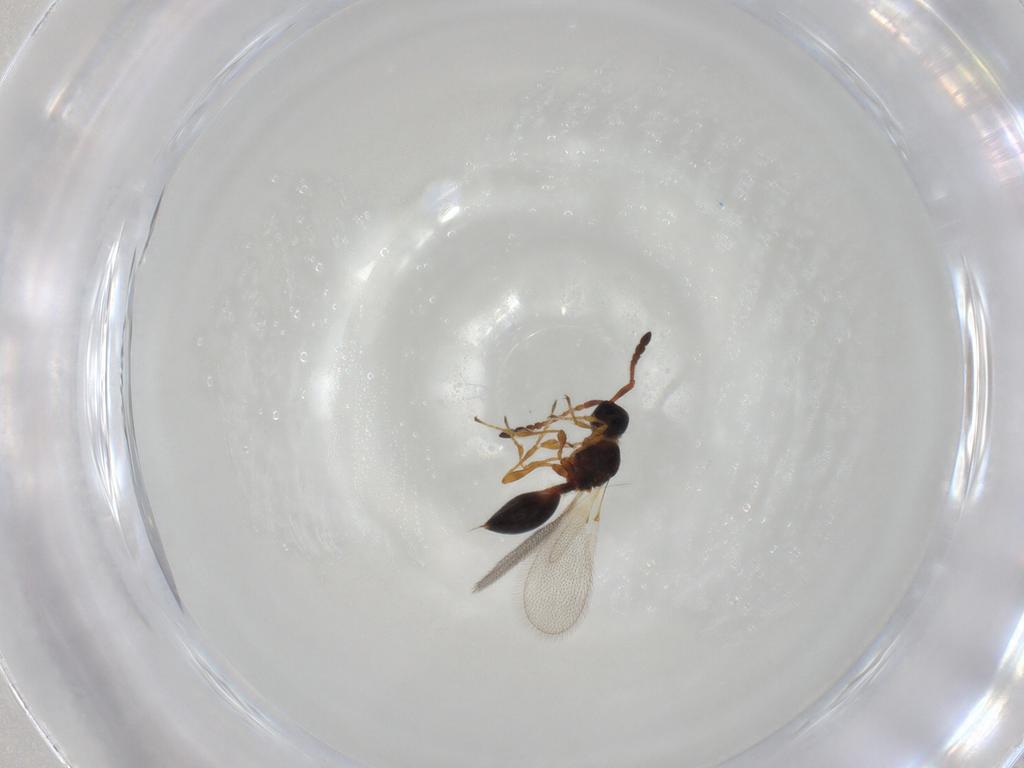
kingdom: Animalia
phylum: Arthropoda
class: Insecta
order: Hymenoptera
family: Diapriidae
